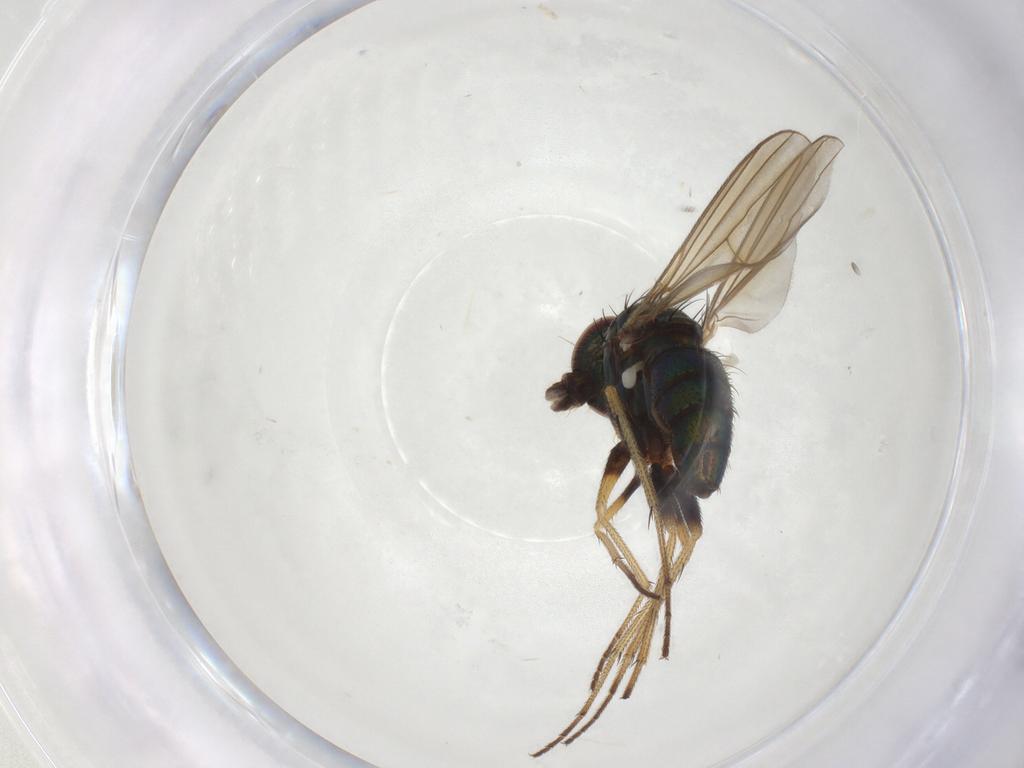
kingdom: Animalia
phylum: Arthropoda
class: Insecta
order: Diptera
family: Dolichopodidae
